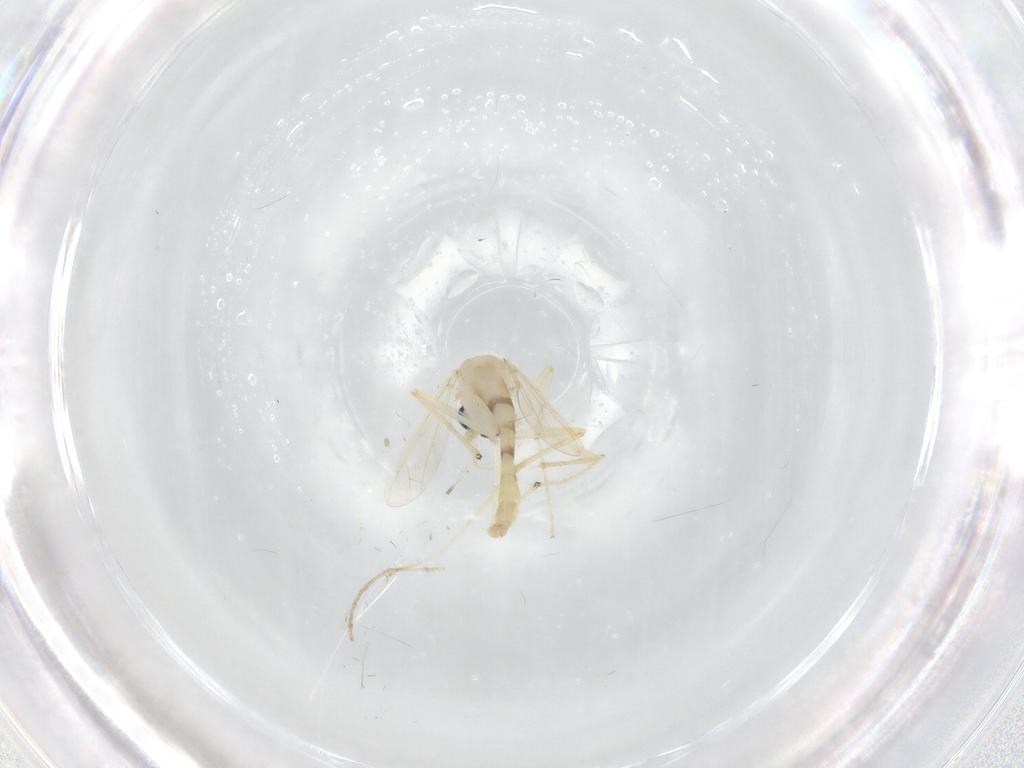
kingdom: Animalia
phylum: Arthropoda
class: Insecta
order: Diptera
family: Chironomidae
